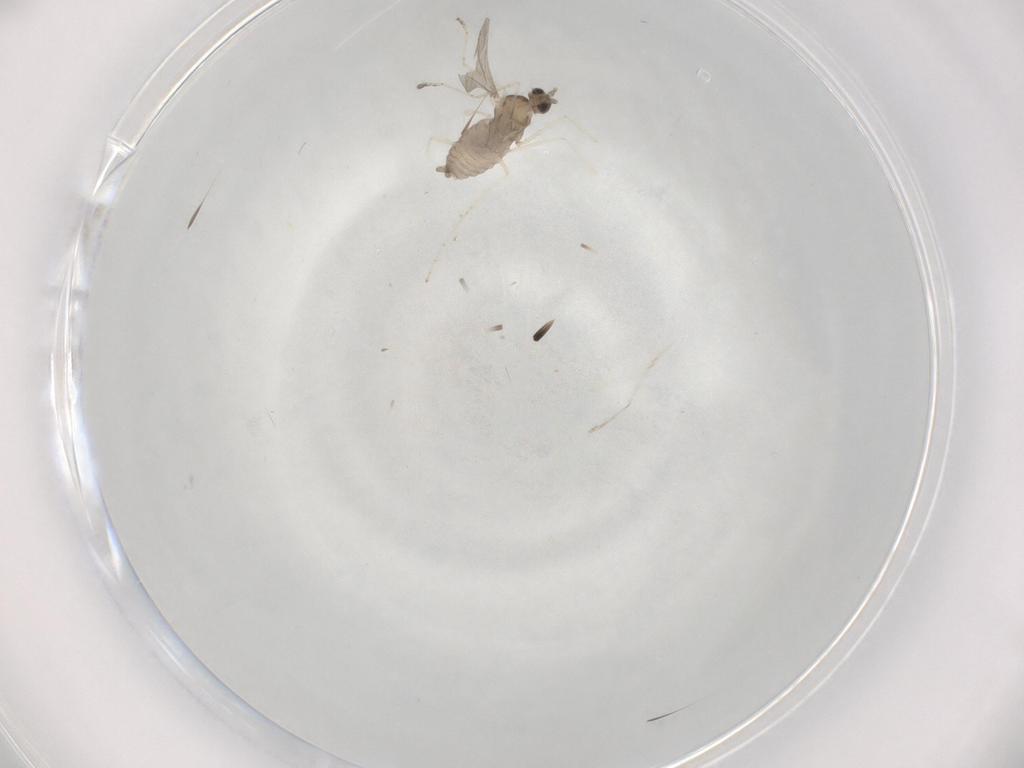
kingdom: Animalia
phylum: Arthropoda
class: Insecta
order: Diptera
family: Cecidomyiidae
